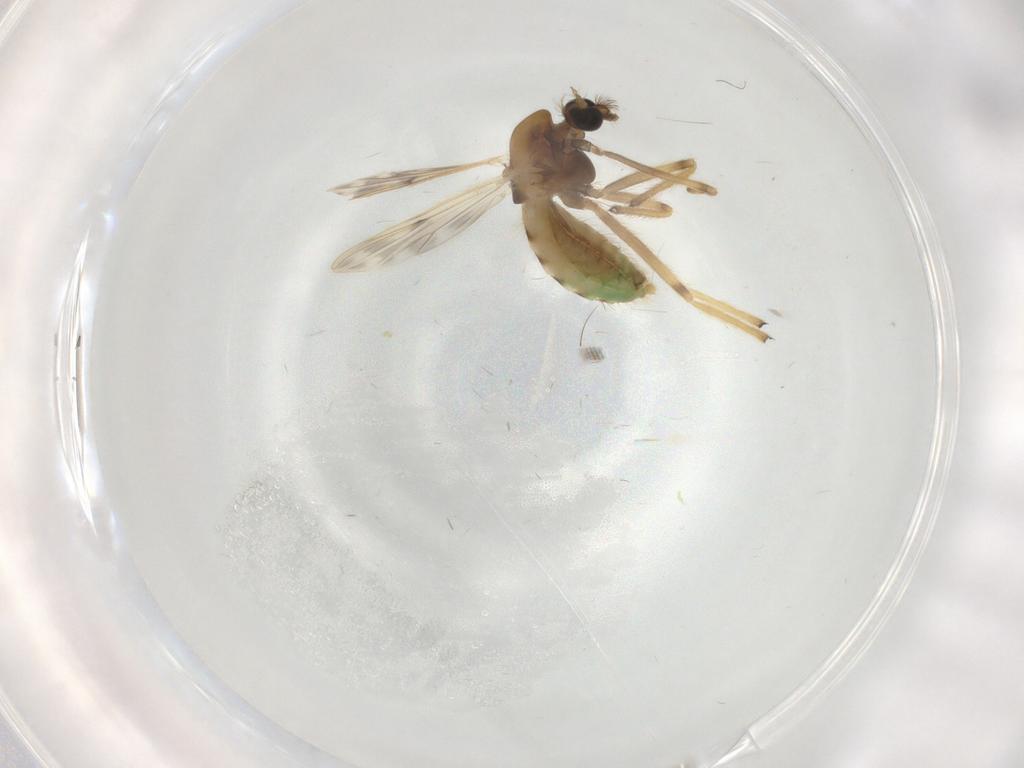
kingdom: Animalia
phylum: Arthropoda
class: Insecta
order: Diptera
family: Chironomidae
